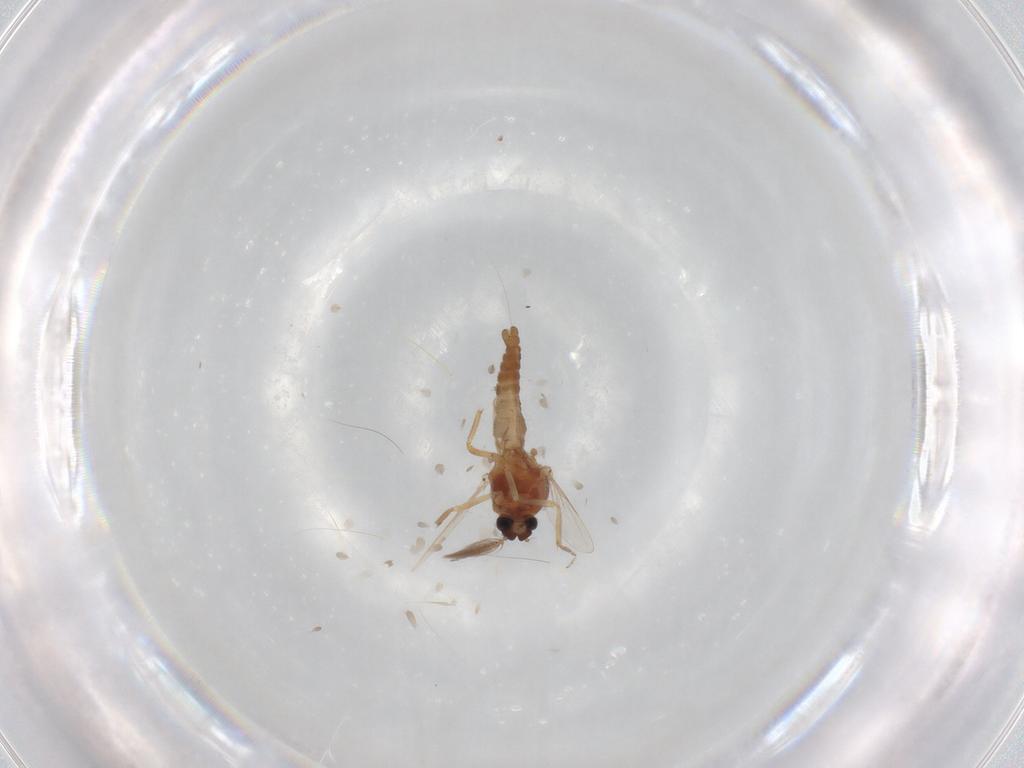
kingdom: Animalia
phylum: Arthropoda
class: Insecta
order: Diptera
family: Ceratopogonidae
